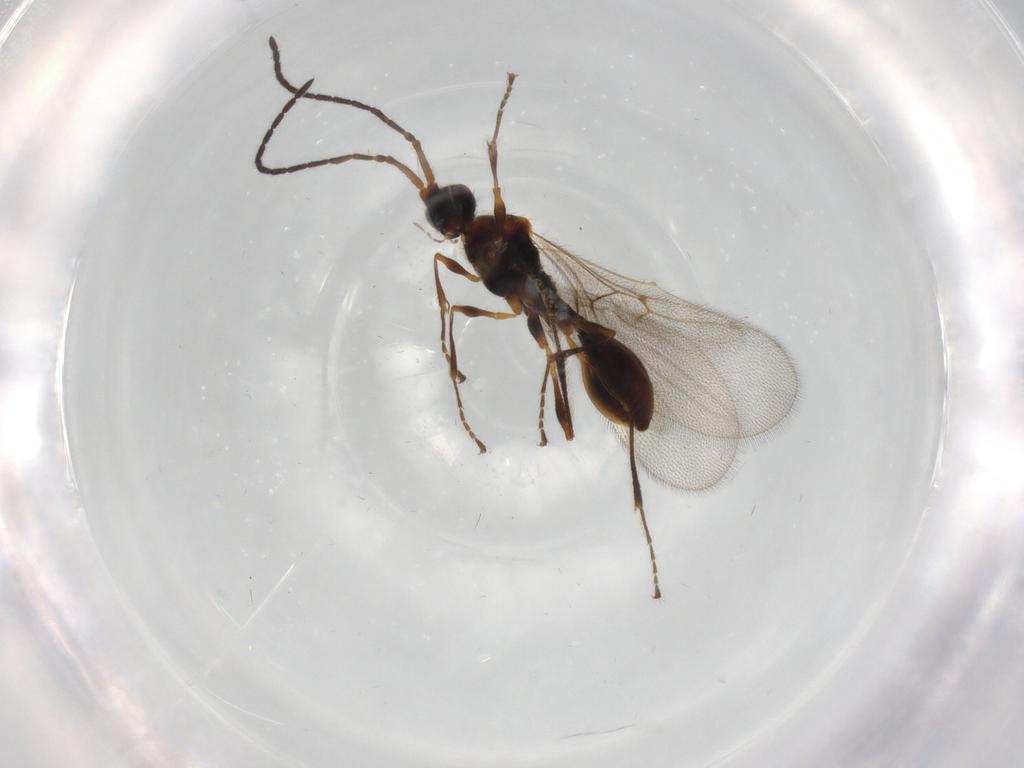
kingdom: Animalia
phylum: Arthropoda
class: Insecta
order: Hymenoptera
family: Diapriidae
